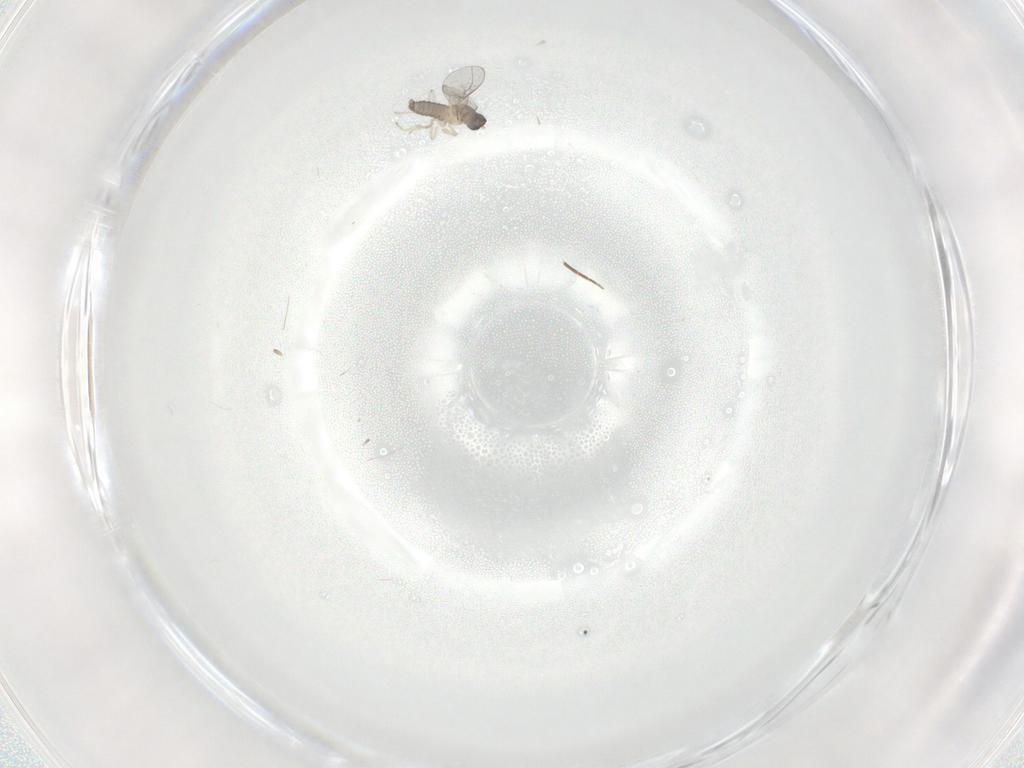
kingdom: Animalia
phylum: Arthropoda
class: Insecta
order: Diptera
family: Cecidomyiidae
